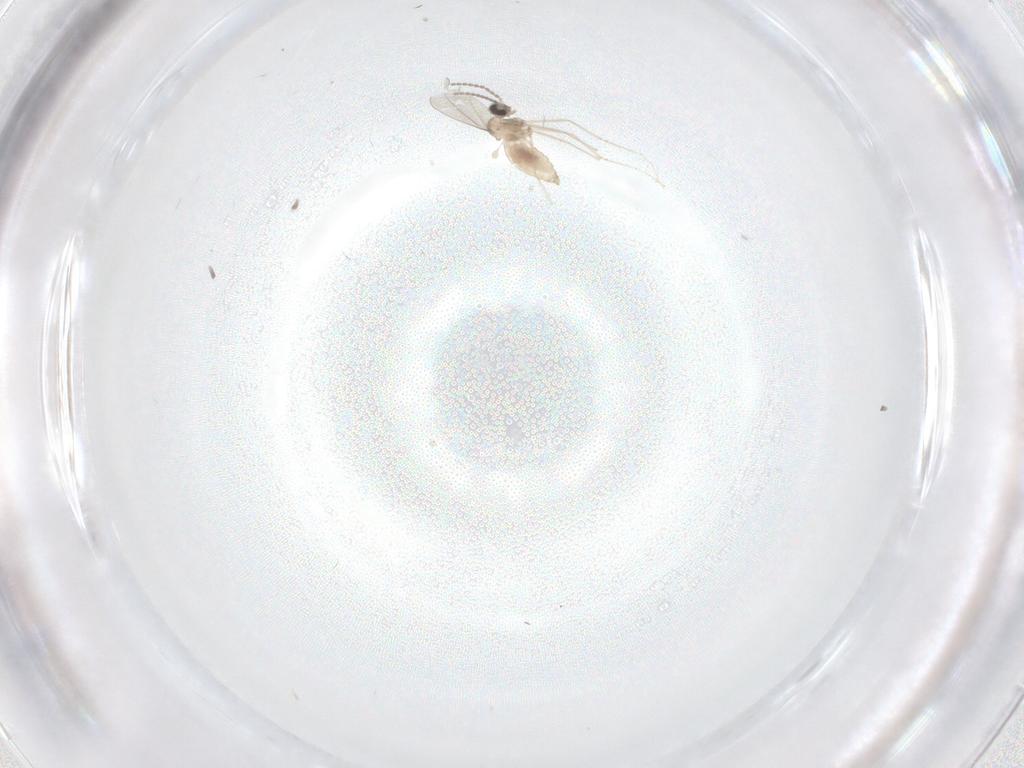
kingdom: Animalia
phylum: Arthropoda
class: Insecta
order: Diptera
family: Cecidomyiidae
